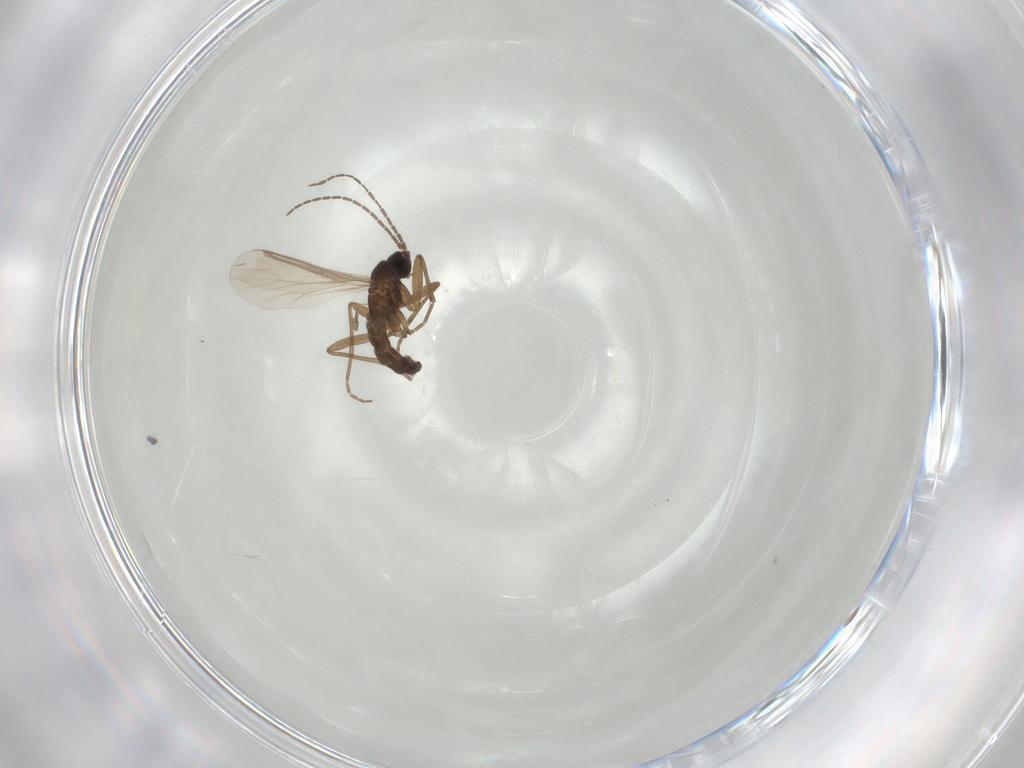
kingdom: Animalia
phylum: Arthropoda
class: Insecta
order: Diptera
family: Sciaridae
